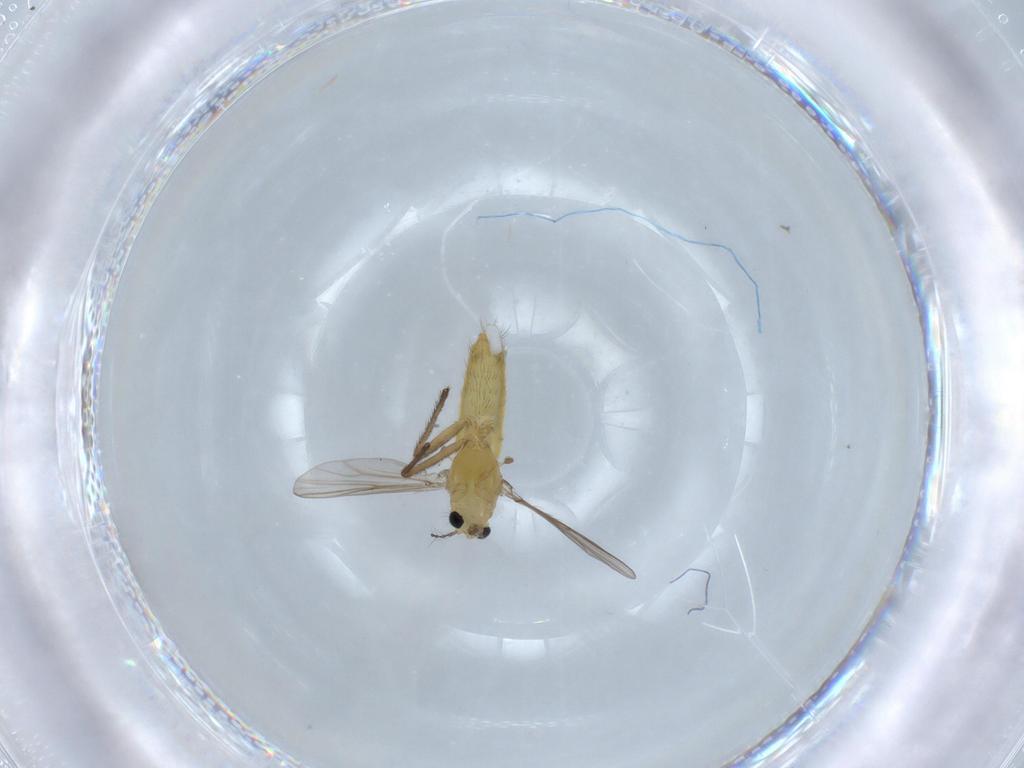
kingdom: Animalia
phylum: Arthropoda
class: Insecta
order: Diptera
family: Chironomidae
